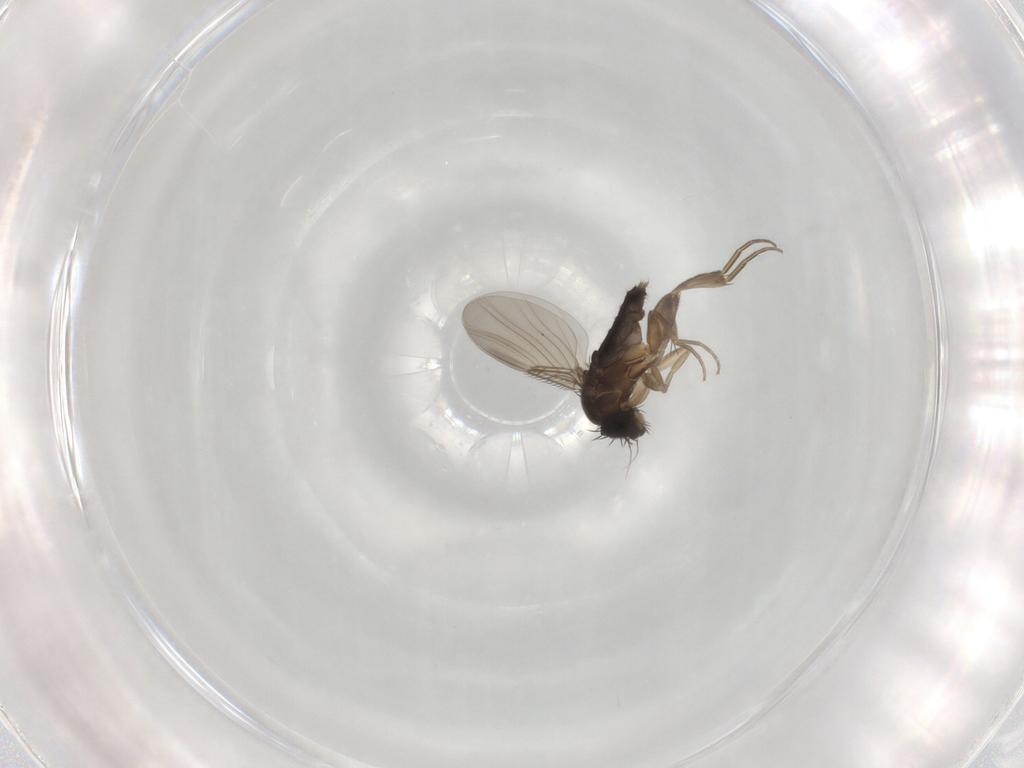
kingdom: Animalia
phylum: Arthropoda
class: Insecta
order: Diptera
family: Phoridae
